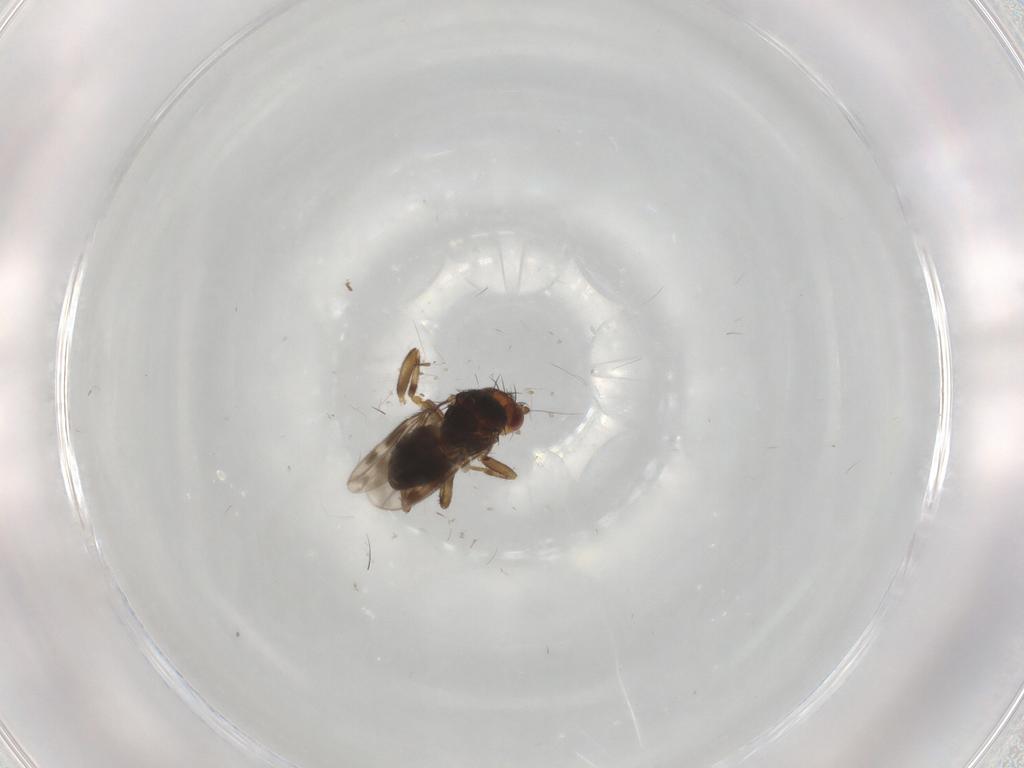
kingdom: Animalia
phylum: Arthropoda
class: Insecta
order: Diptera
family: Sphaeroceridae
